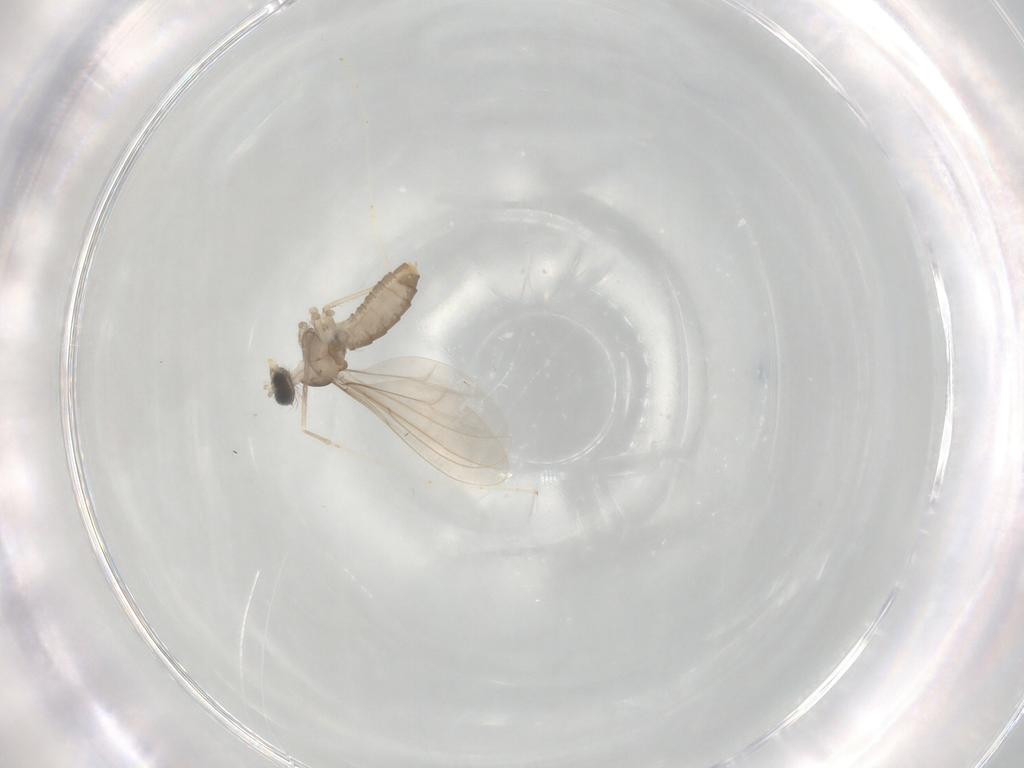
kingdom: Animalia
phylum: Arthropoda
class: Insecta
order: Diptera
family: Cecidomyiidae
